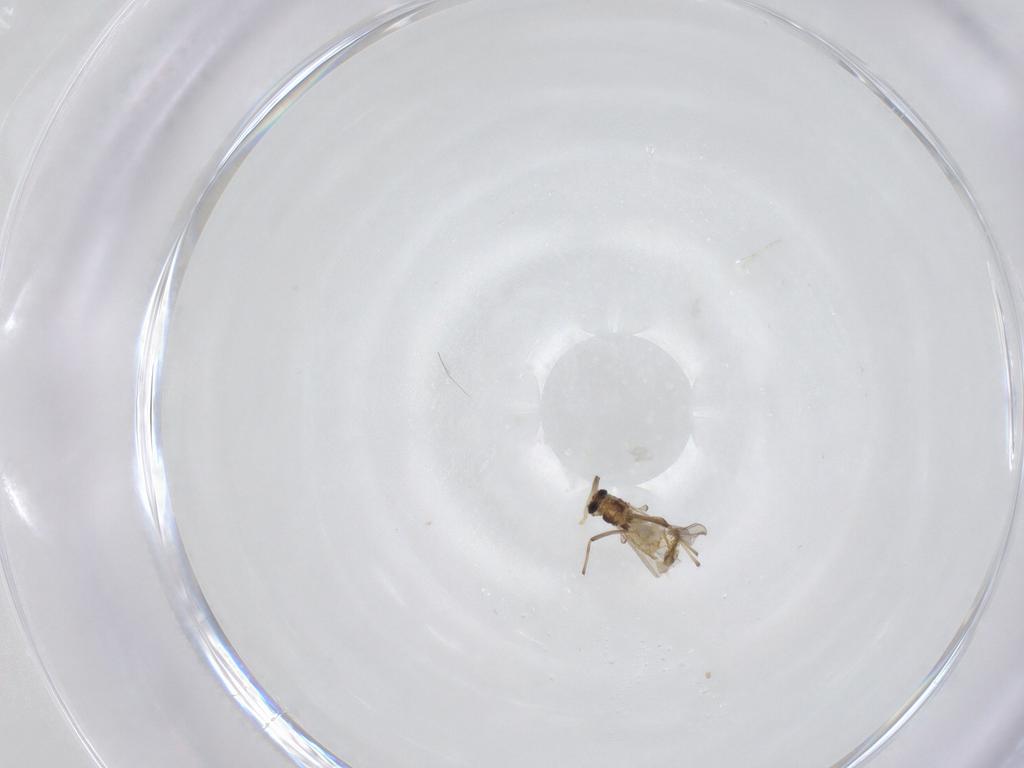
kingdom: Animalia
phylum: Arthropoda
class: Insecta
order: Diptera
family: Chironomidae
